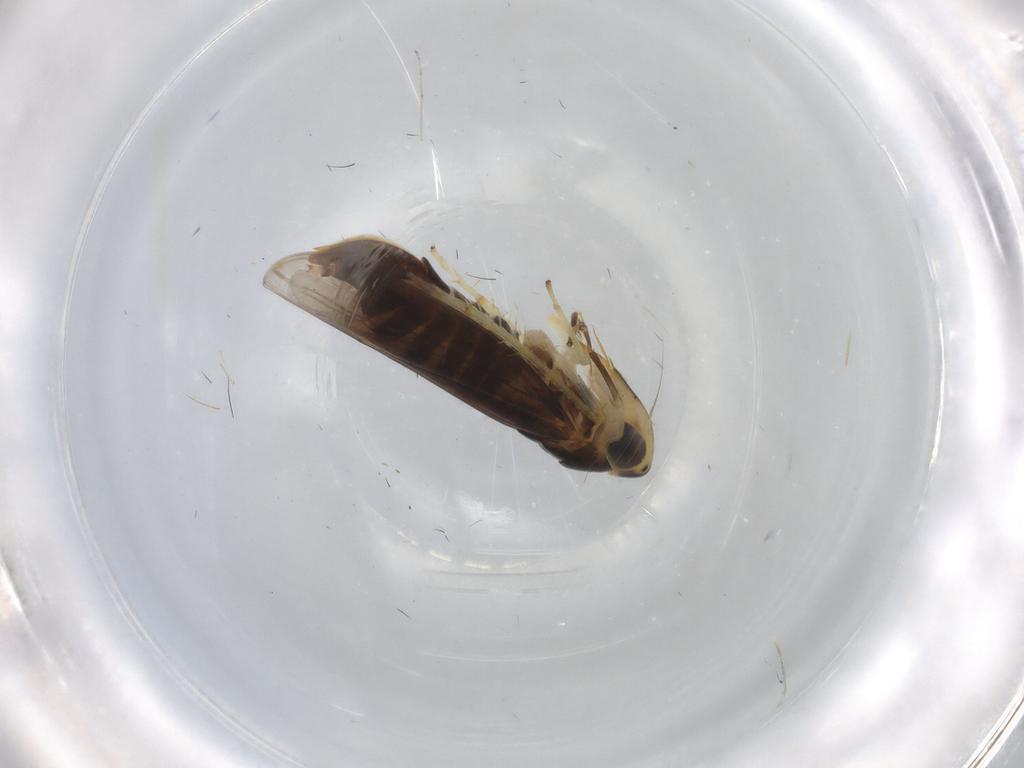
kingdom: Animalia
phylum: Arthropoda
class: Insecta
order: Hemiptera
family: Cicadellidae
